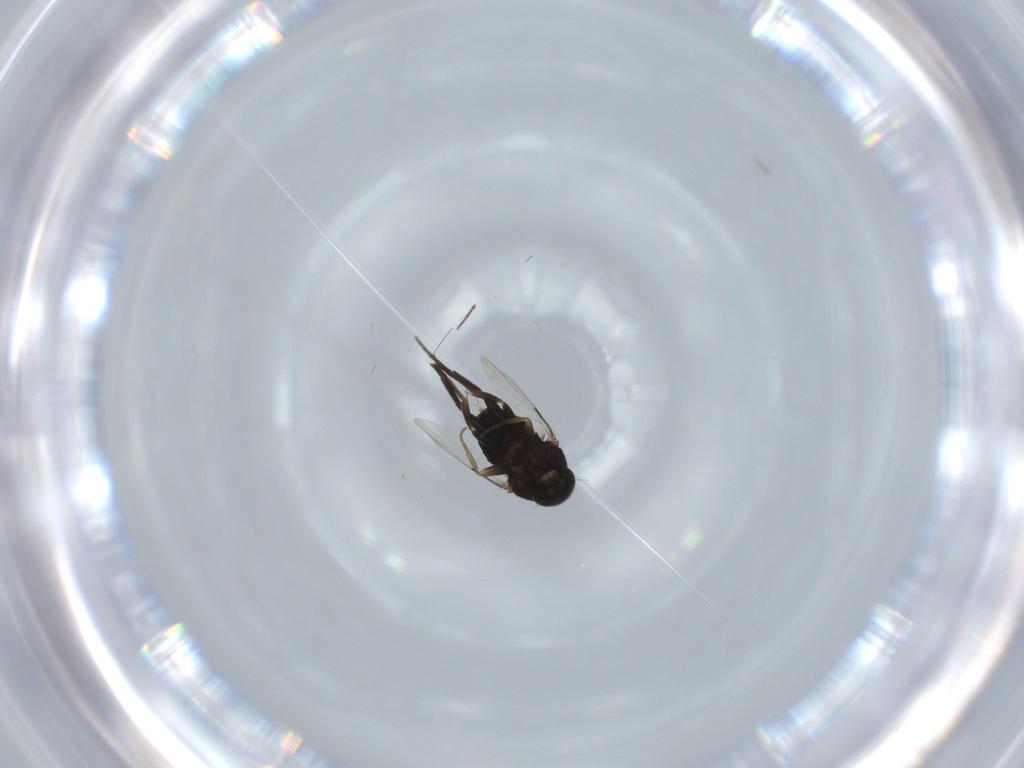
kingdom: Animalia
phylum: Arthropoda
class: Insecta
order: Diptera
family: Phoridae
